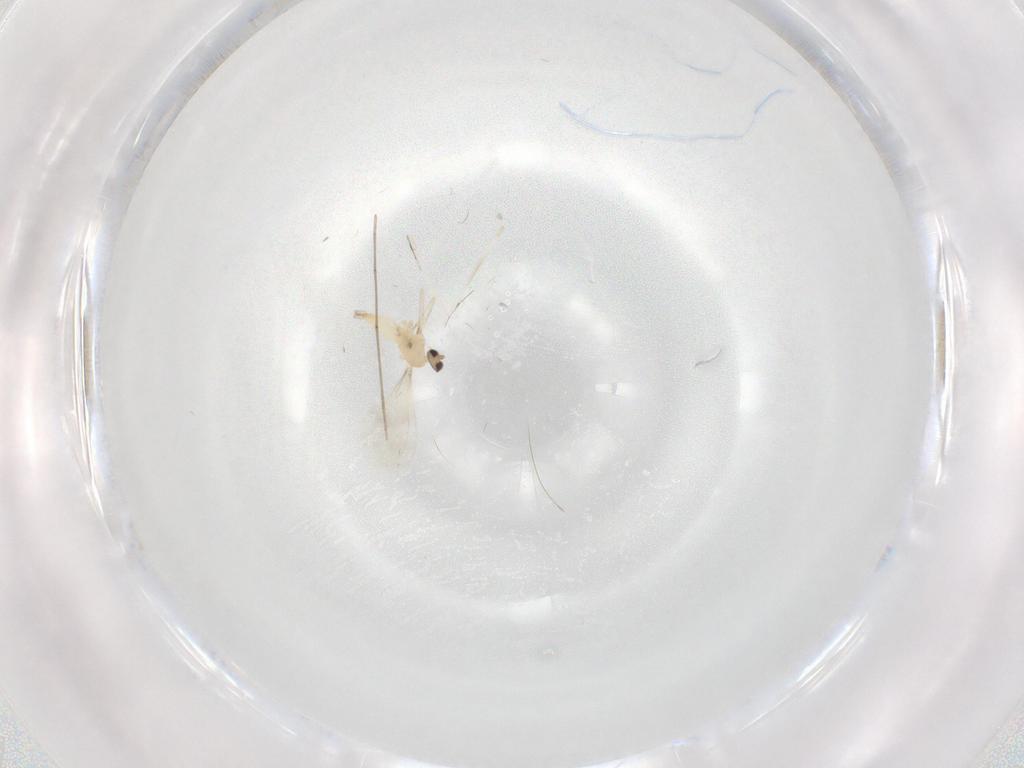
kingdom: Animalia
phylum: Arthropoda
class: Insecta
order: Diptera
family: Cecidomyiidae
